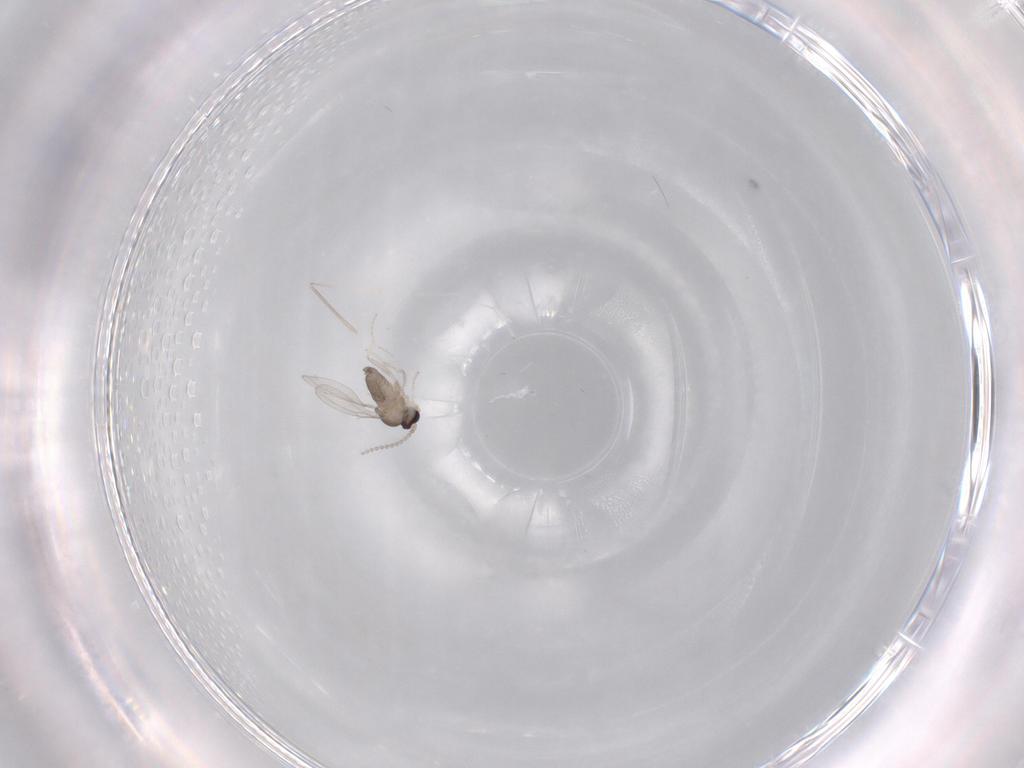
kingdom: Animalia
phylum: Arthropoda
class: Insecta
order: Diptera
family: Cecidomyiidae
